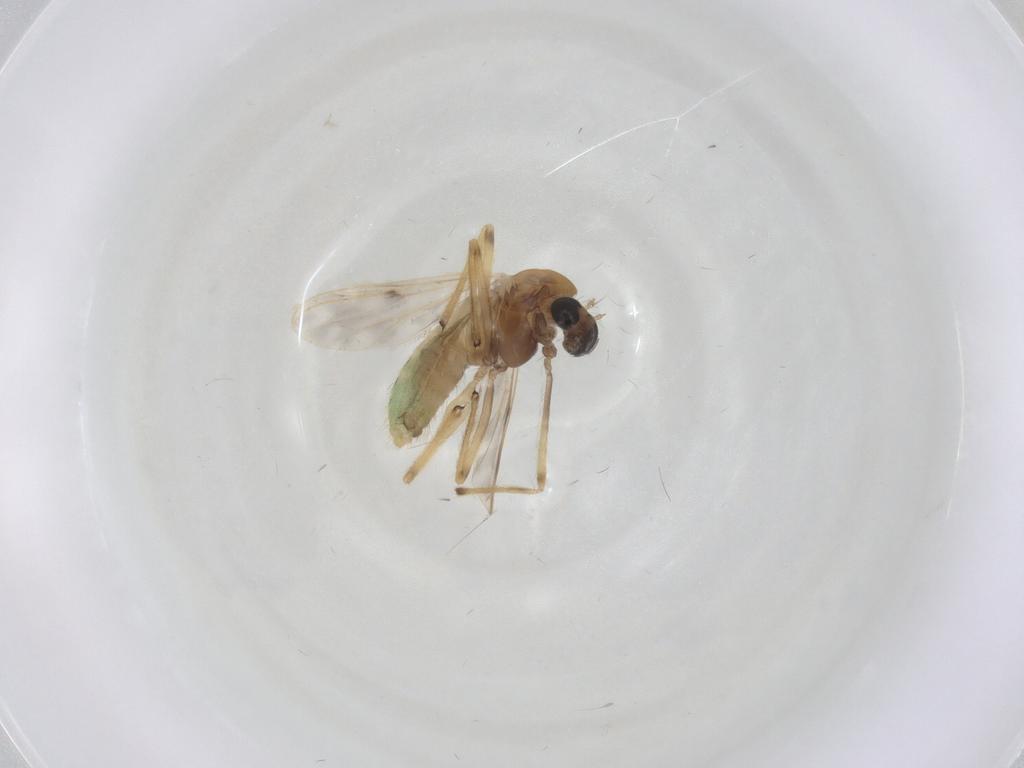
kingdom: Animalia
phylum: Arthropoda
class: Insecta
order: Diptera
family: Chironomidae
